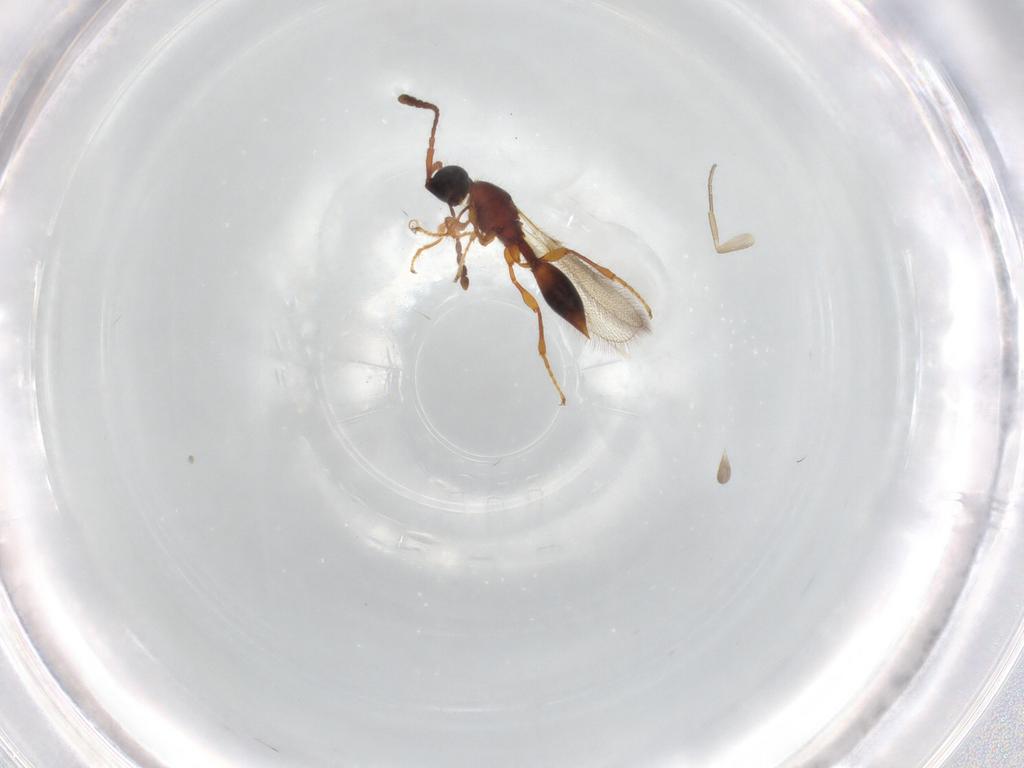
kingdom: Animalia
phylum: Arthropoda
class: Insecta
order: Hymenoptera
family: Diapriidae
